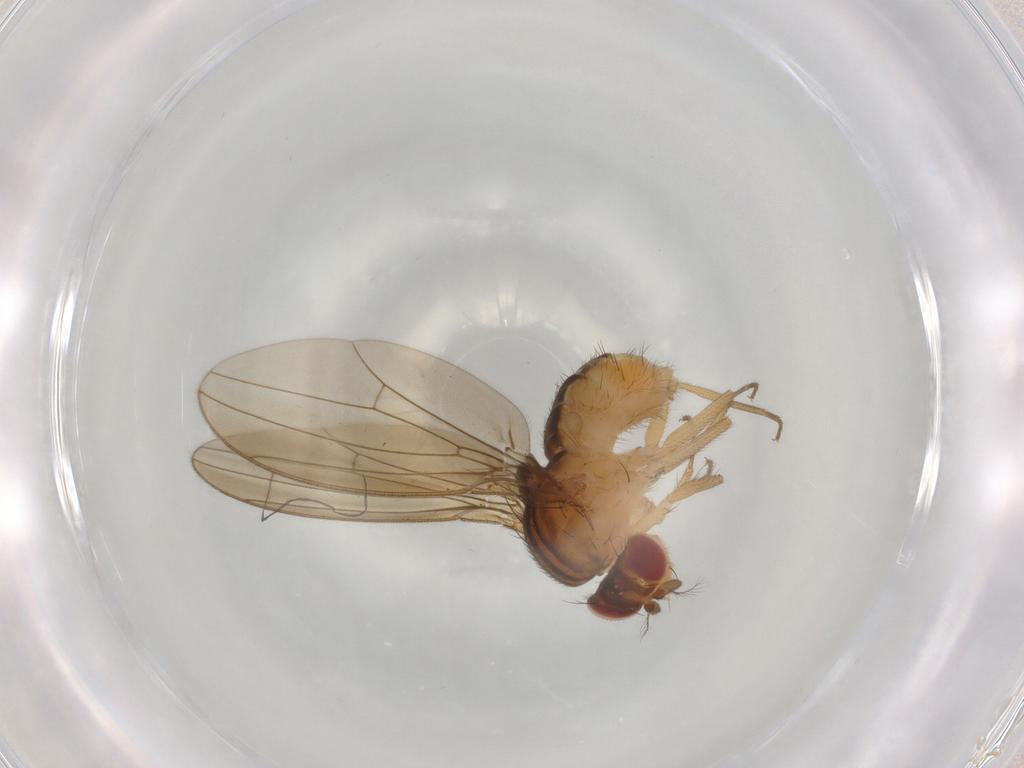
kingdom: Animalia
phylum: Arthropoda
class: Insecta
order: Diptera
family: Drosophilidae
